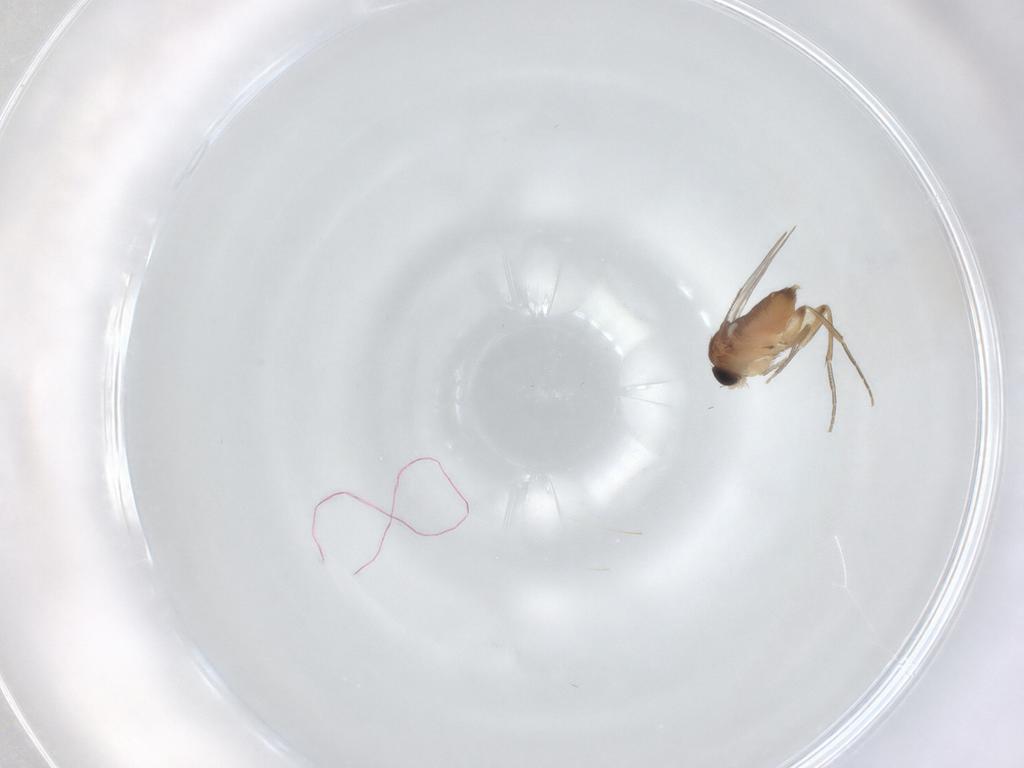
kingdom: Animalia
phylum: Arthropoda
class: Insecta
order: Diptera
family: Phoridae
